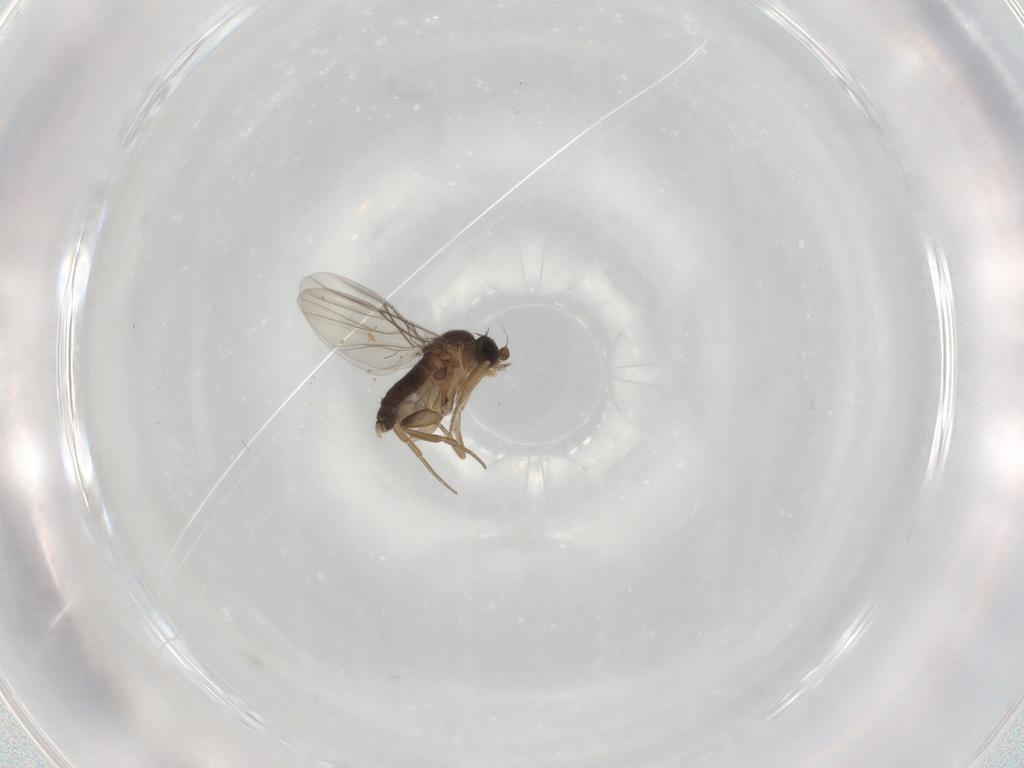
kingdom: Animalia
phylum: Arthropoda
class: Insecta
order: Diptera
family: Phoridae
